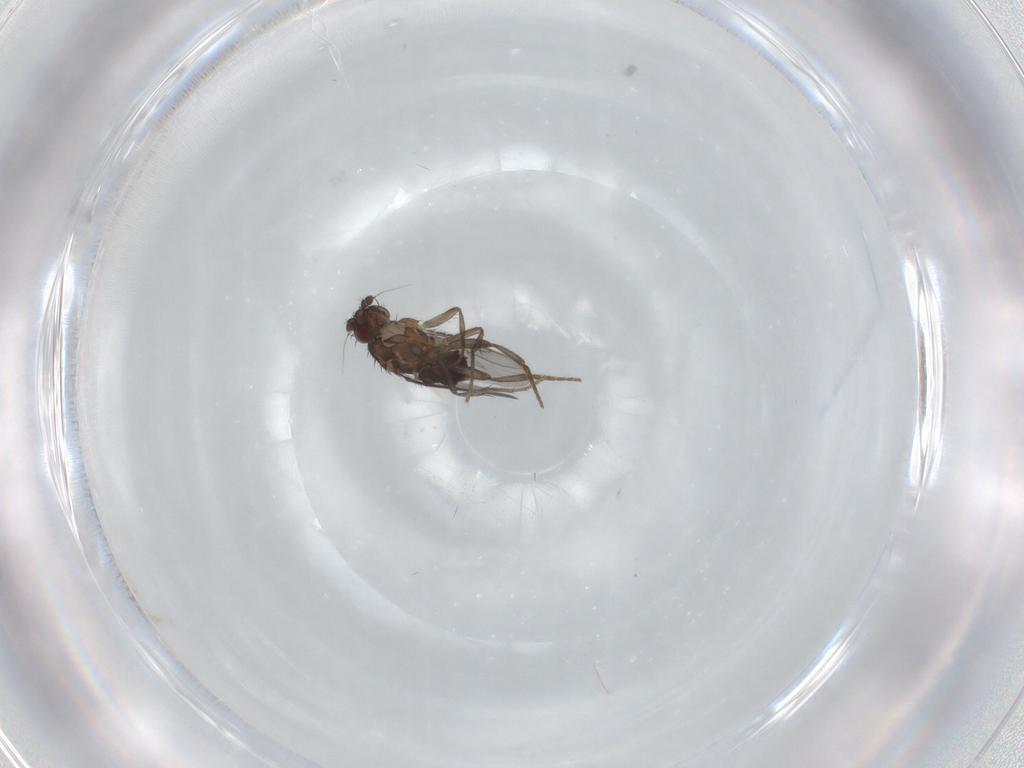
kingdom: Animalia
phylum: Arthropoda
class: Insecta
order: Diptera
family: Sphaeroceridae
